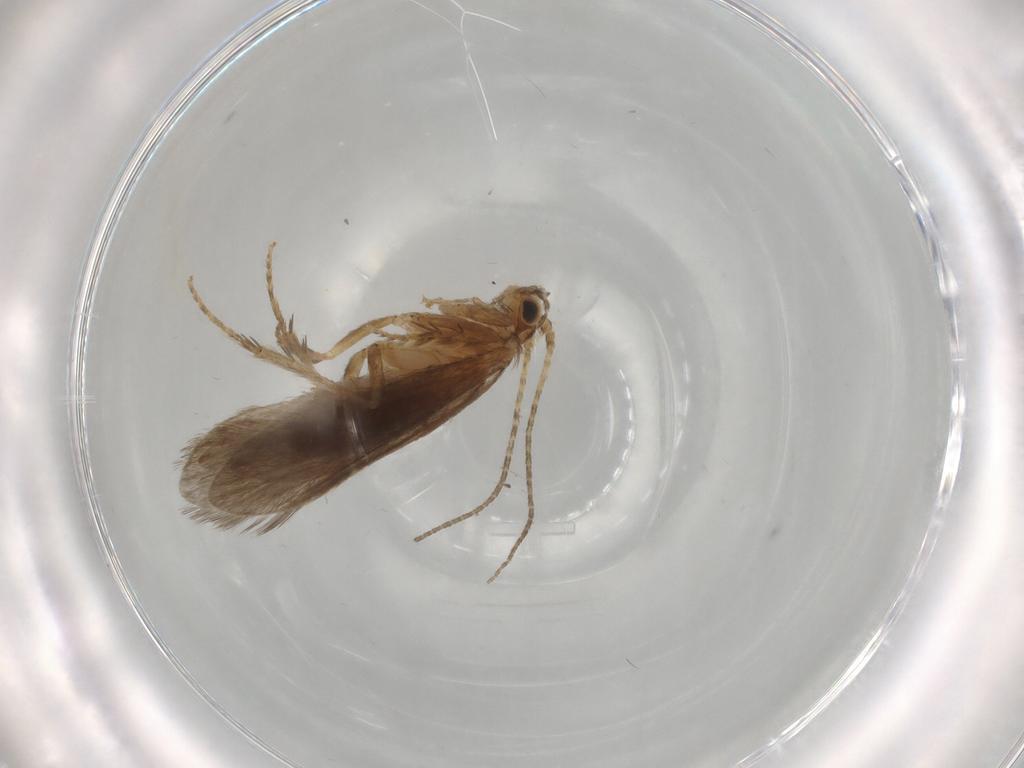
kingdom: Animalia
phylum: Arthropoda
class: Insecta
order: Trichoptera
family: Glossosomatidae
